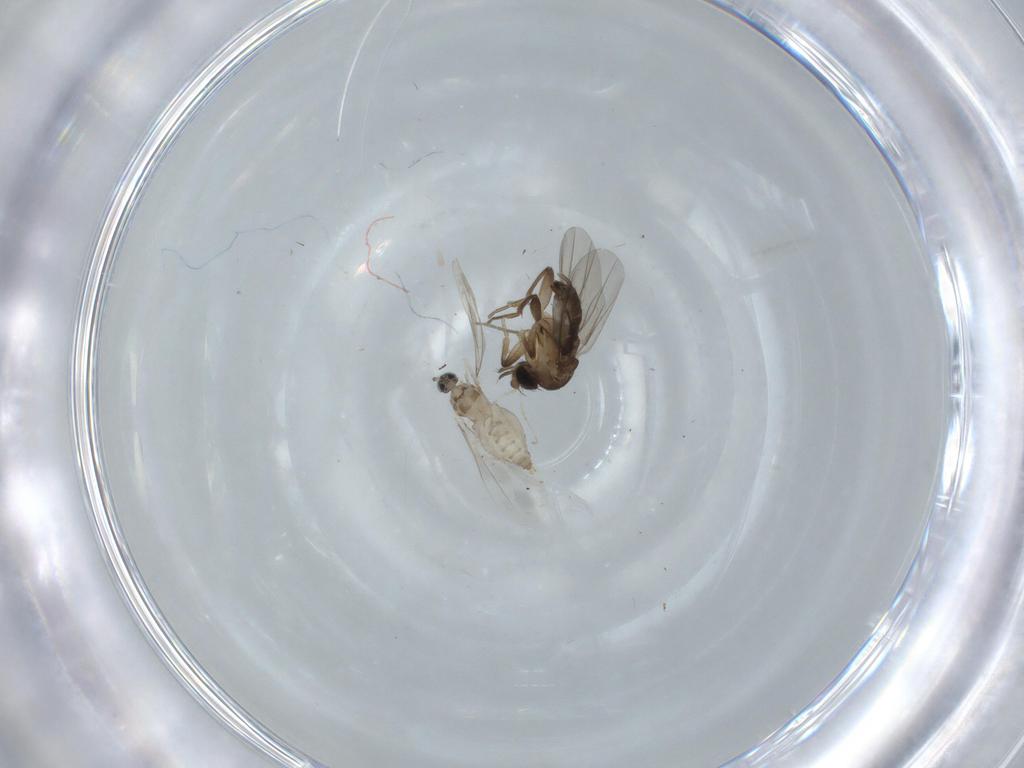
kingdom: Animalia
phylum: Arthropoda
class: Insecta
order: Diptera
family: Cecidomyiidae
